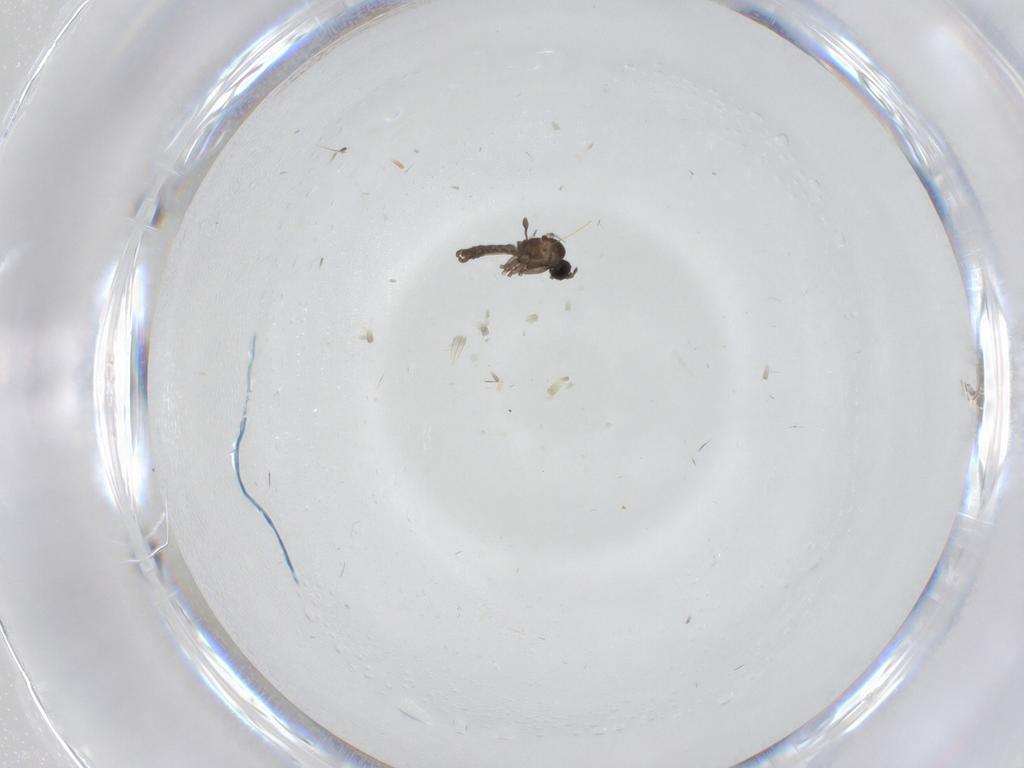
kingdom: Animalia
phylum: Arthropoda
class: Insecta
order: Diptera
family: Sciaridae
